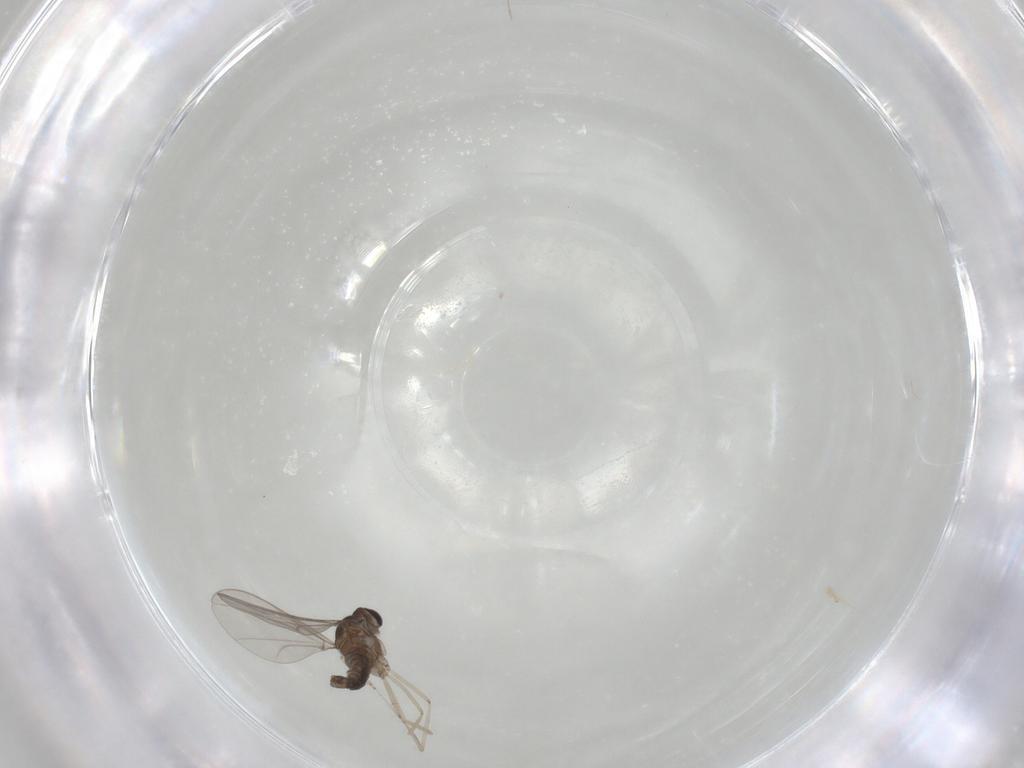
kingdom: Animalia
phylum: Arthropoda
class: Insecta
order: Diptera
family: Cecidomyiidae
